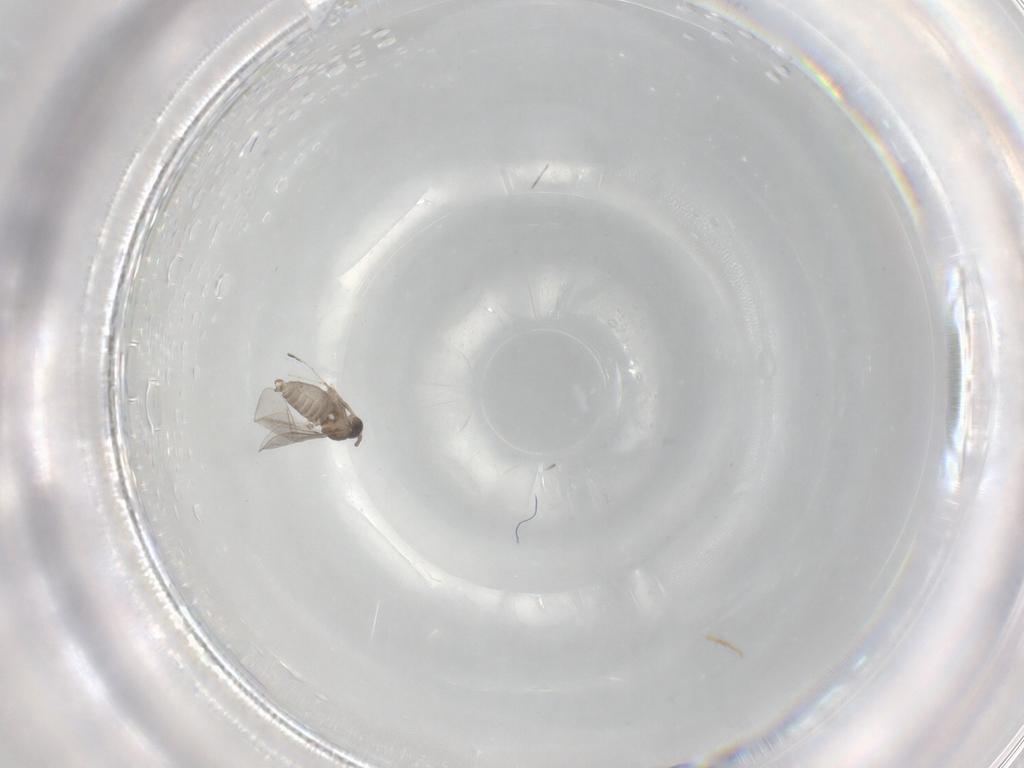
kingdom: Animalia
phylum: Arthropoda
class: Insecta
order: Diptera
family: Cecidomyiidae
